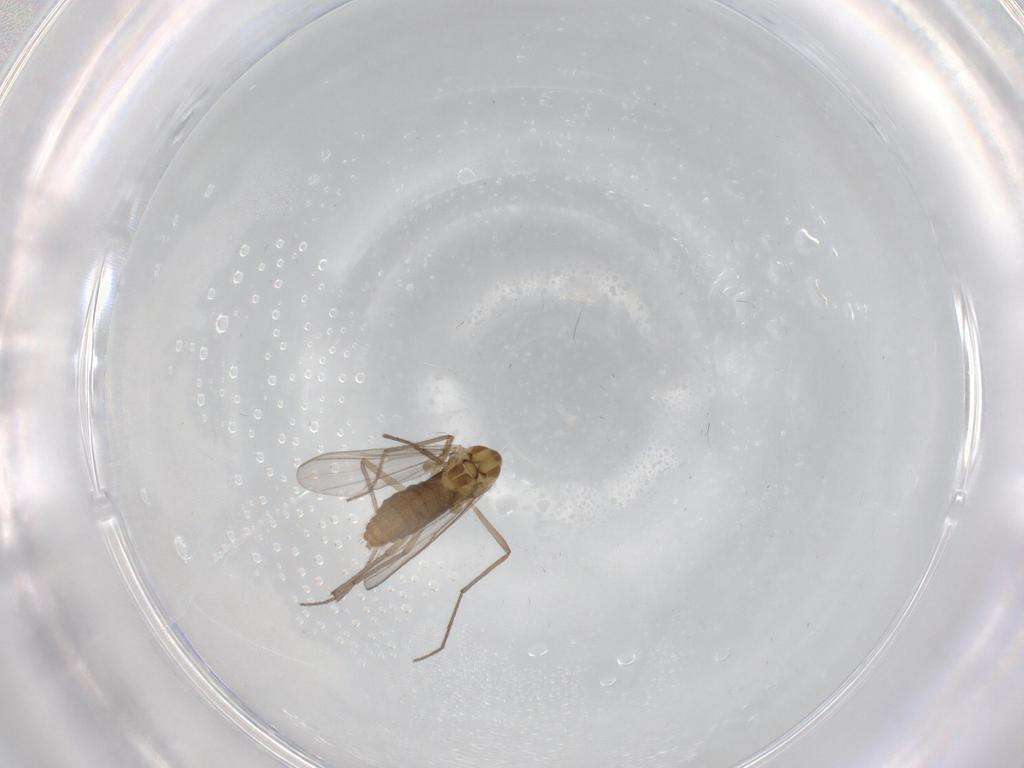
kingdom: Animalia
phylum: Arthropoda
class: Insecta
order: Diptera
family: Chironomidae
